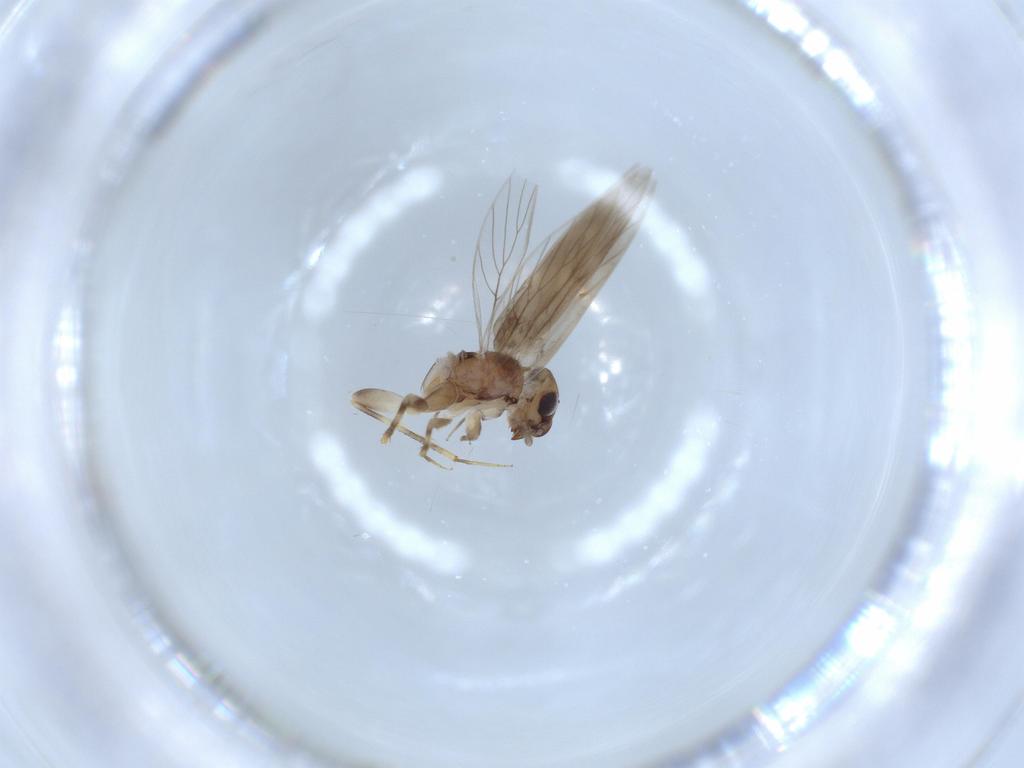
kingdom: Animalia
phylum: Arthropoda
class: Insecta
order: Psocodea
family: Lepidopsocidae
